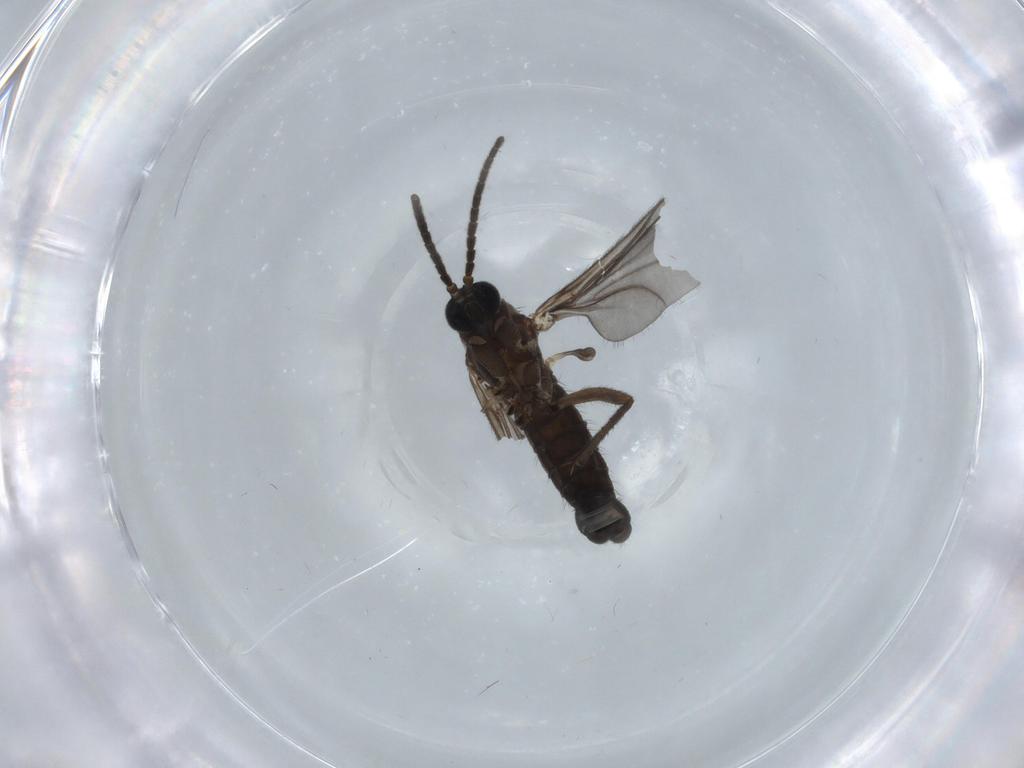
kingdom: Animalia
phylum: Arthropoda
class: Insecta
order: Diptera
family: Sciaridae
